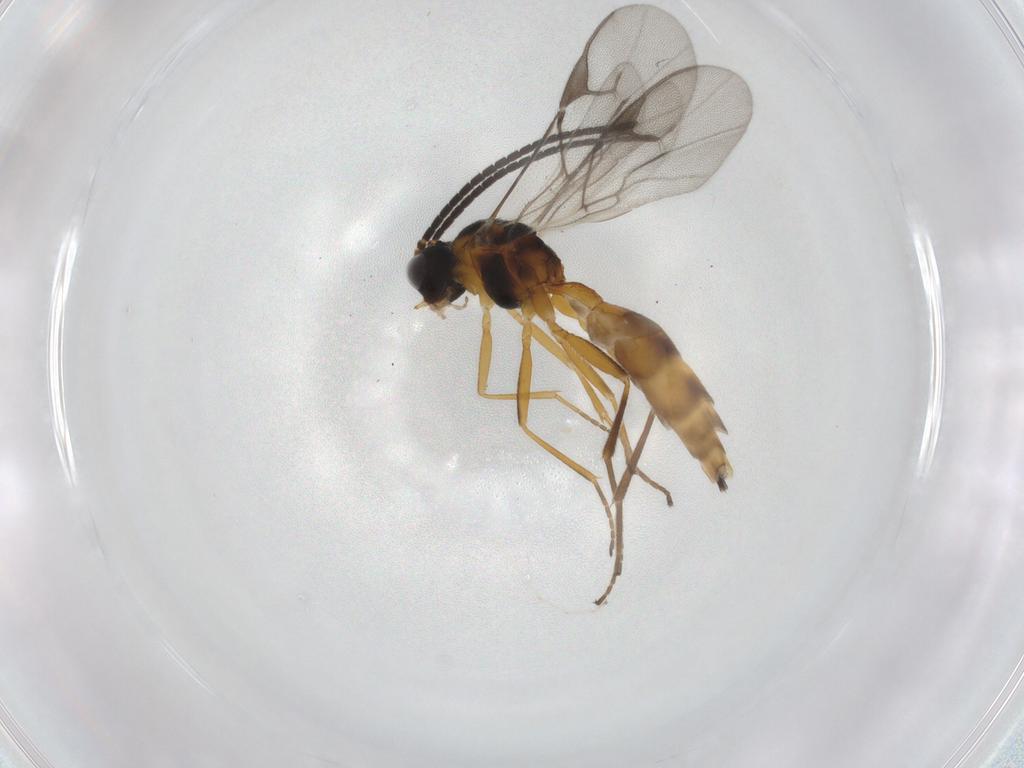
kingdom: Animalia
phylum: Arthropoda
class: Insecta
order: Hymenoptera
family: Braconidae
